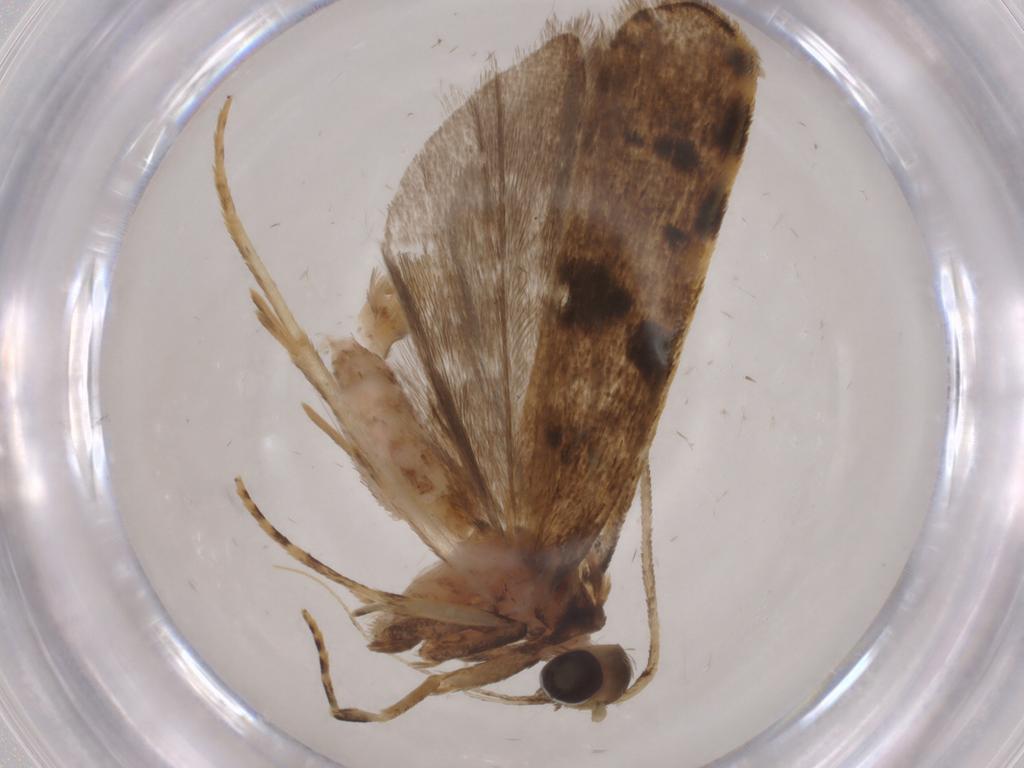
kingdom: Animalia
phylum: Arthropoda
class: Insecta
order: Lepidoptera
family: Autostichidae
